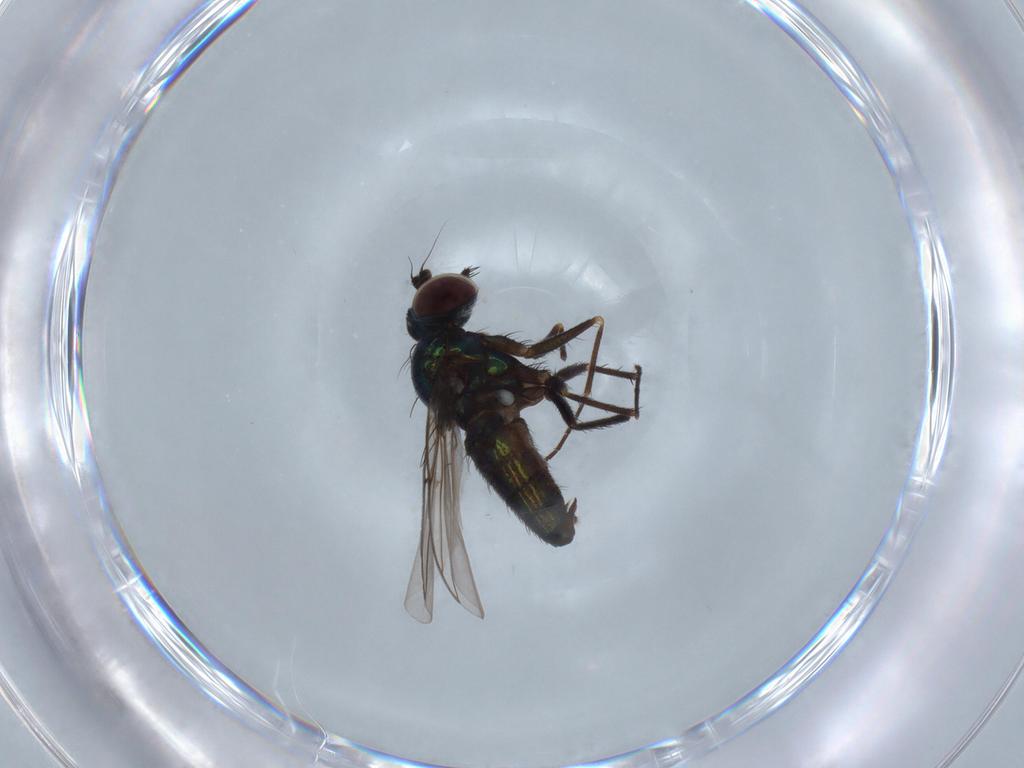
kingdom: Animalia
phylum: Arthropoda
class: Insecta
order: Diptera
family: Dolichopodidae
